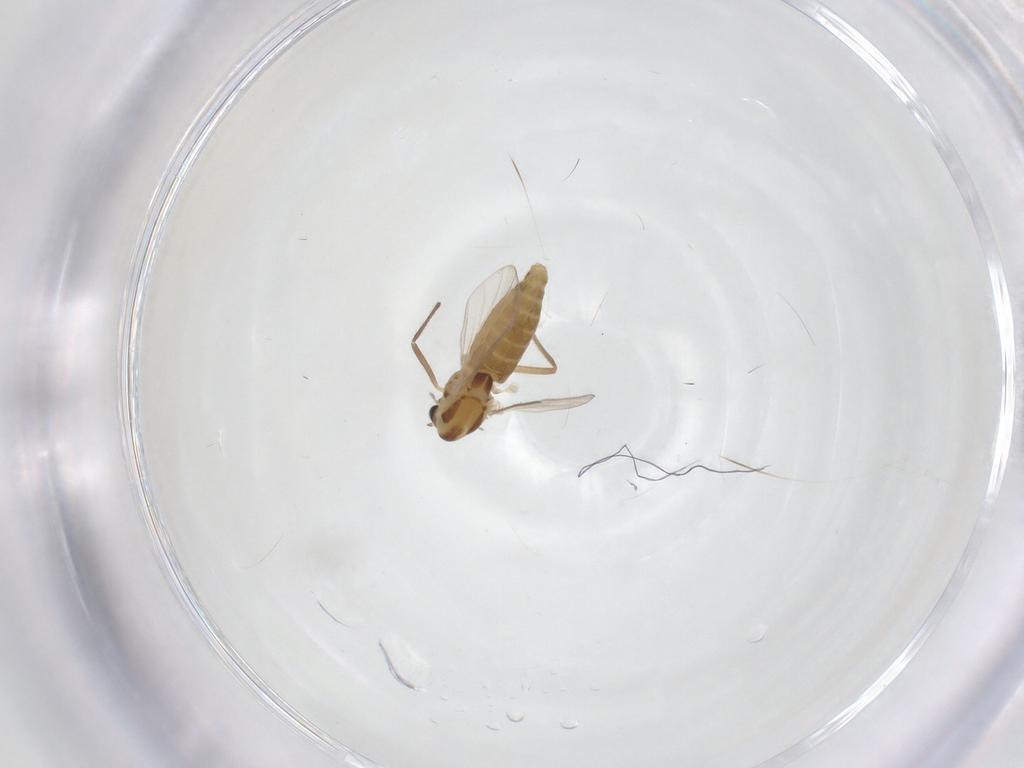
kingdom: Animalia
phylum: Arthropoda
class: Insecta
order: Diptera
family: Chironomidae
